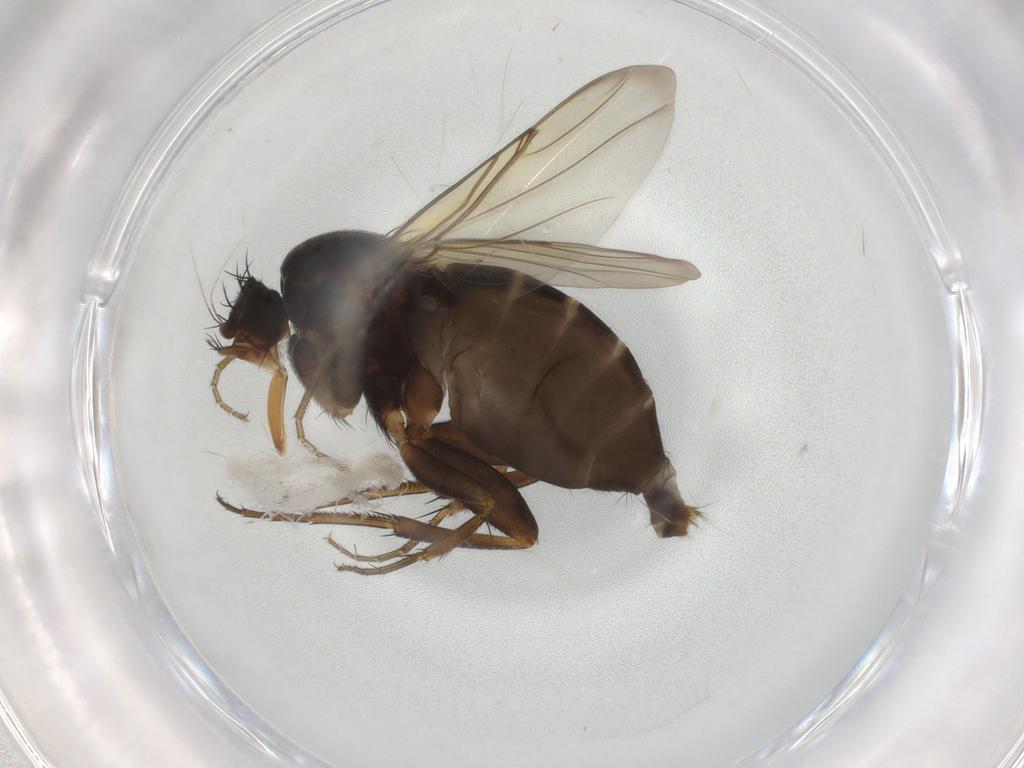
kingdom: Animalia
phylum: Arthropoda
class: Insecta
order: Diptera
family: Phoridae
